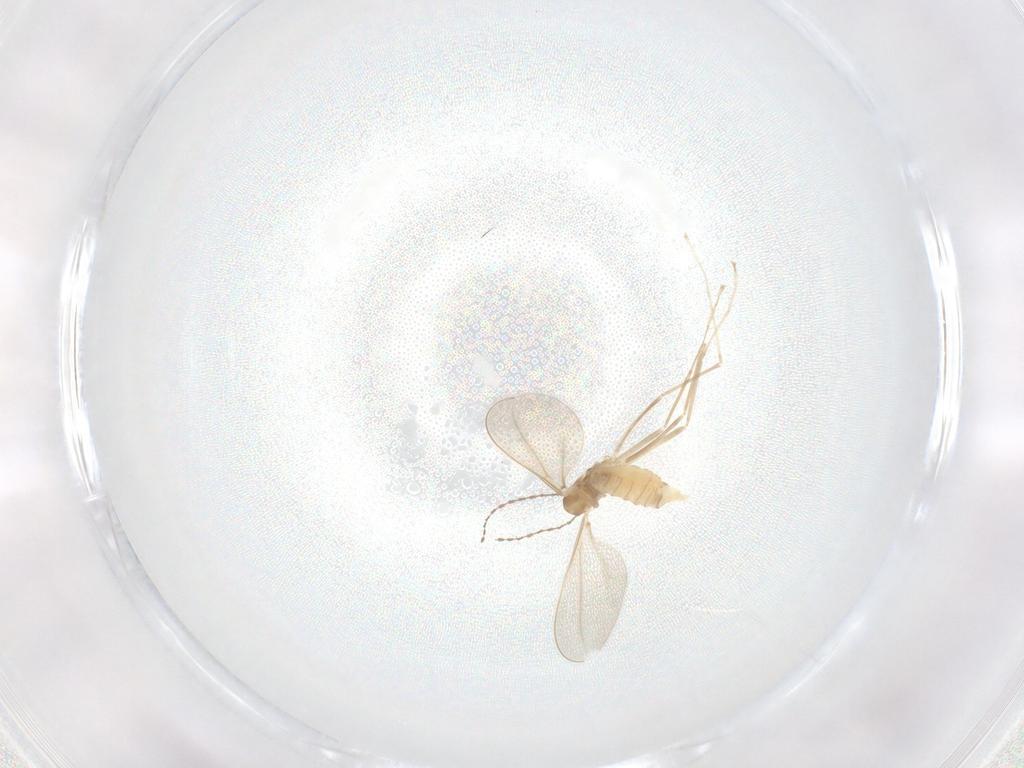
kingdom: Animalia
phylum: Arthropoda
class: Insecta
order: Diptera
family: Cecidomyiidae
